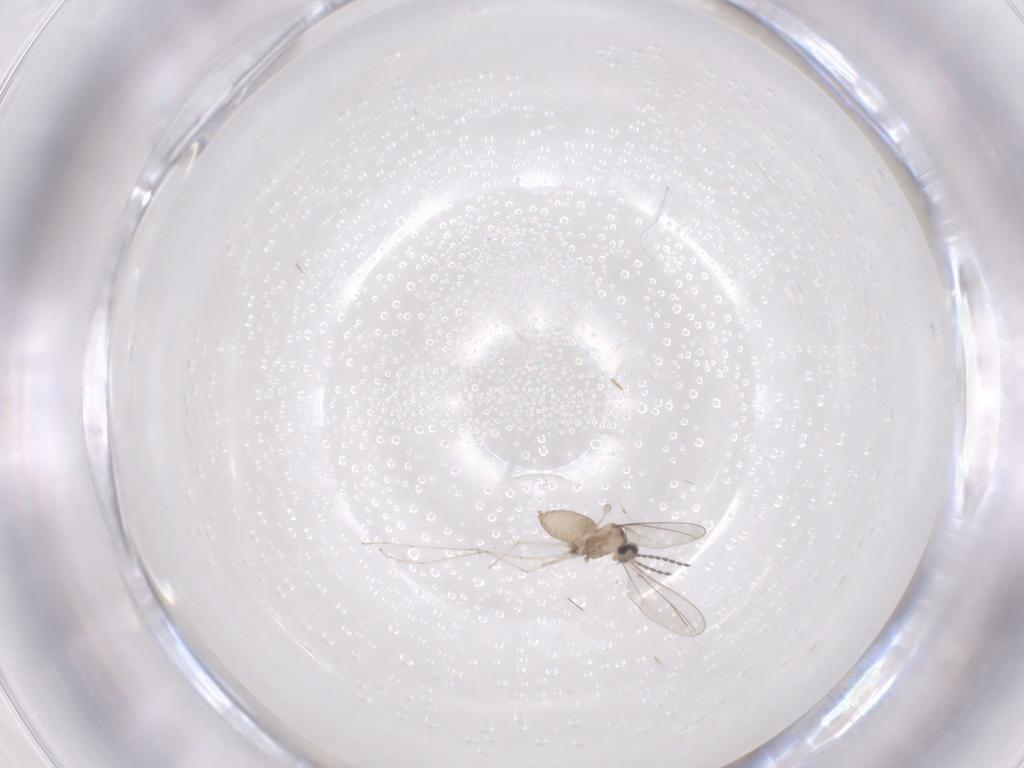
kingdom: Animalia
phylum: Arthropoda
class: Insecta
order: Diptera
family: Cecidomyiidae
